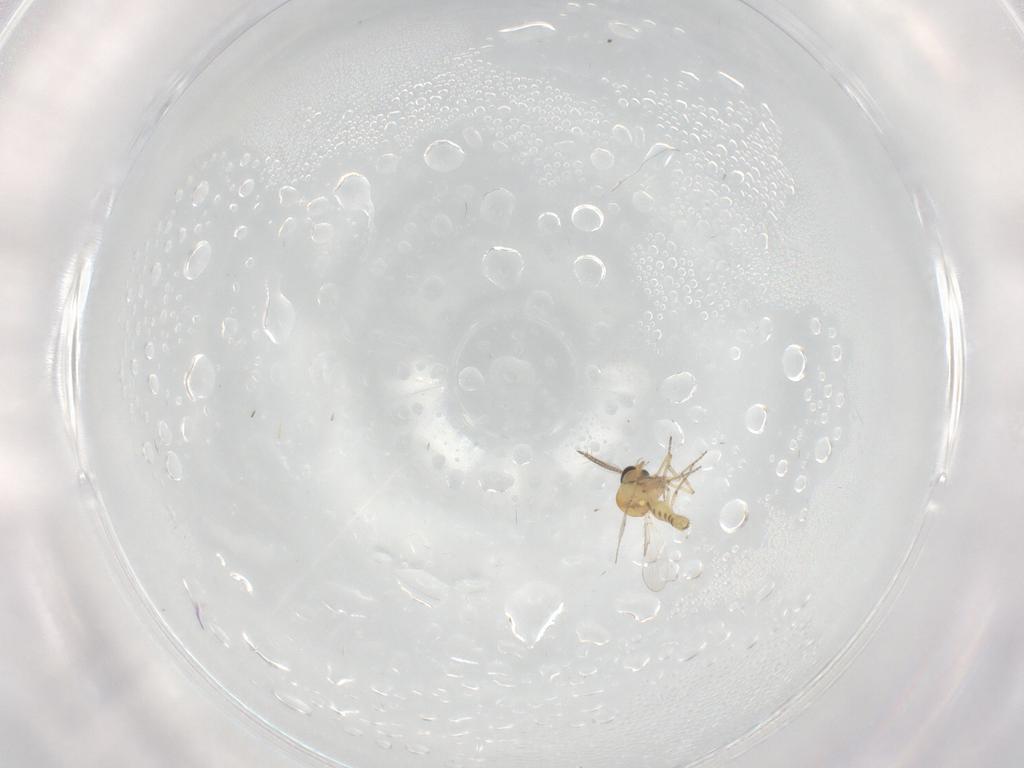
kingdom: Animalia
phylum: Arthropoda
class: Insecta
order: Diptera
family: Ceratopogonidae
